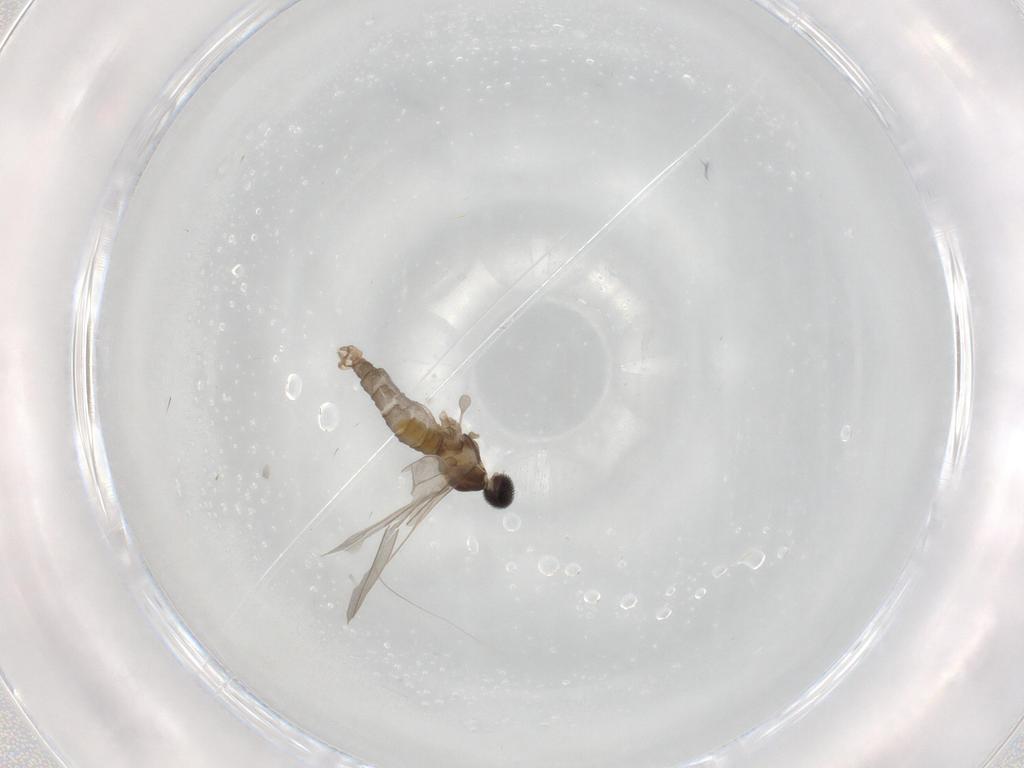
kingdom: Animalia
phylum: Arthropoda
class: Insecta
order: Diptera
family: Cecidomyiidae
